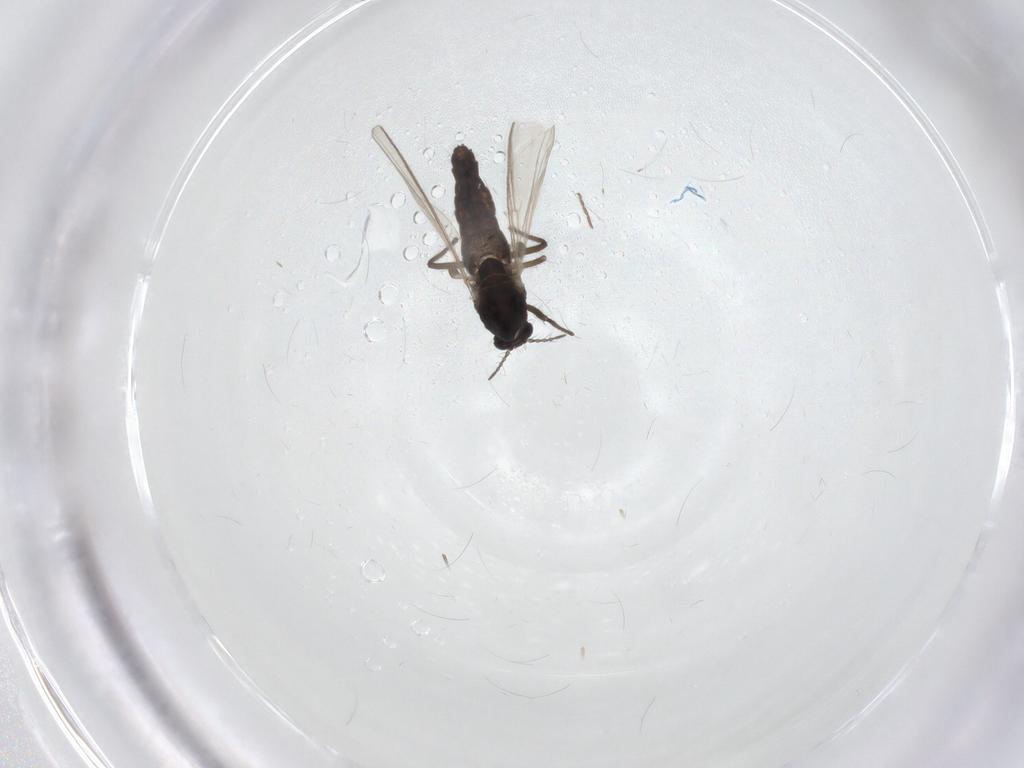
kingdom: Animalia
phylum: Arthropoda
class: Insecta
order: Diptera
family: Chironomidae
